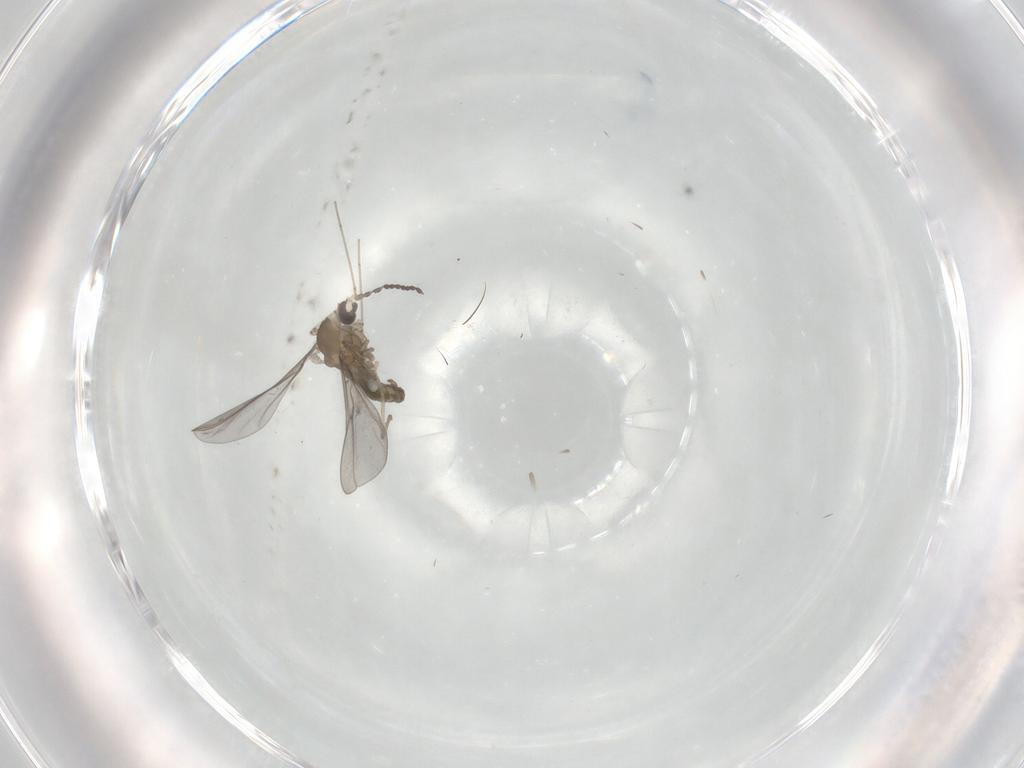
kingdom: Animalia
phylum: Arthropoda
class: Insecta
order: Diptera
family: Cecidomyiidae
